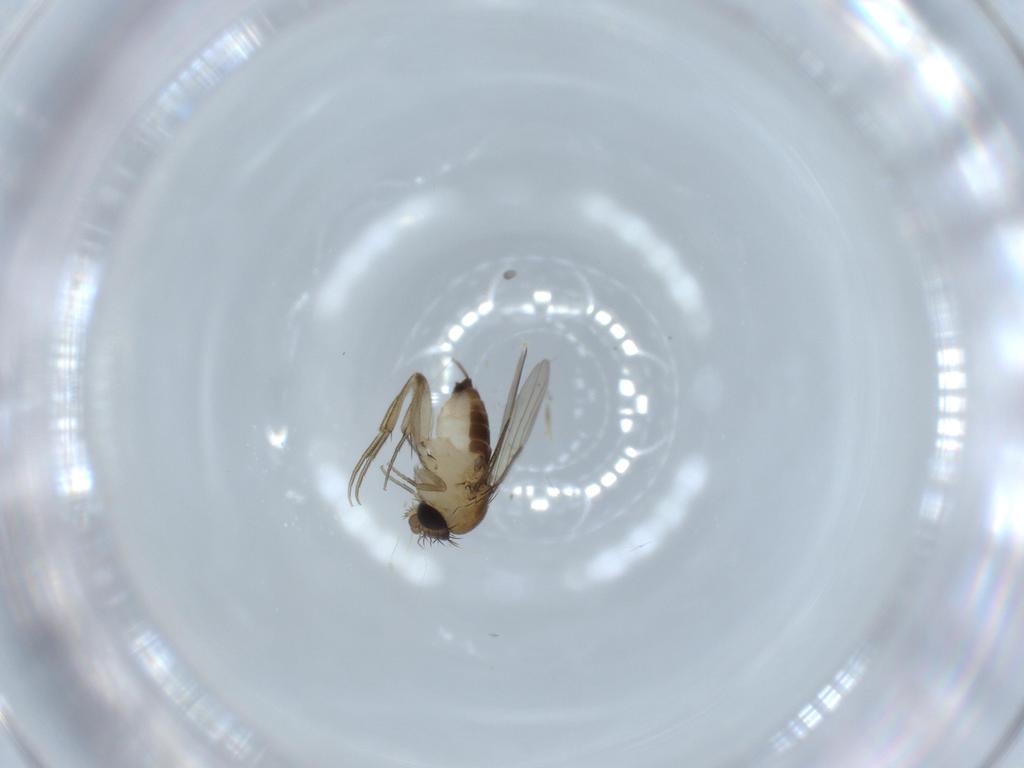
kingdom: Animalia
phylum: Arthropoda
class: Insecta
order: Diptera
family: Phoridae
